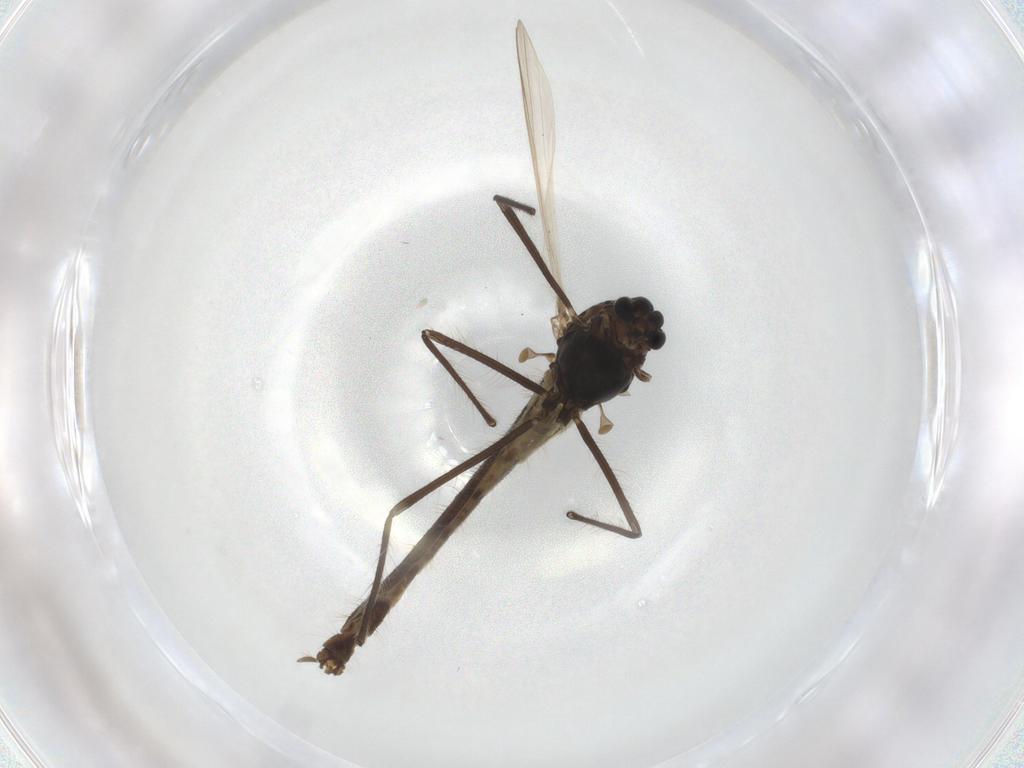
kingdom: Animalia
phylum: Arthropoda
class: Insecta
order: Diptera
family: Chironomidae
